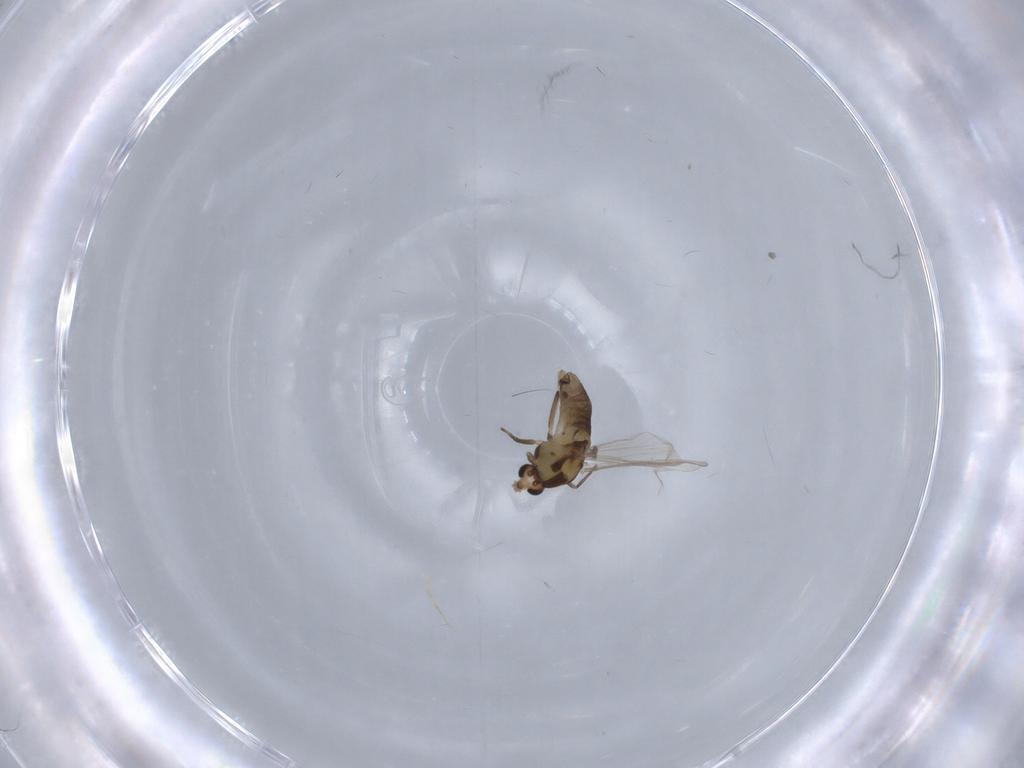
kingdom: Animalia
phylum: Arthropoda
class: Insecta
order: Diptera
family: Chironomidae
